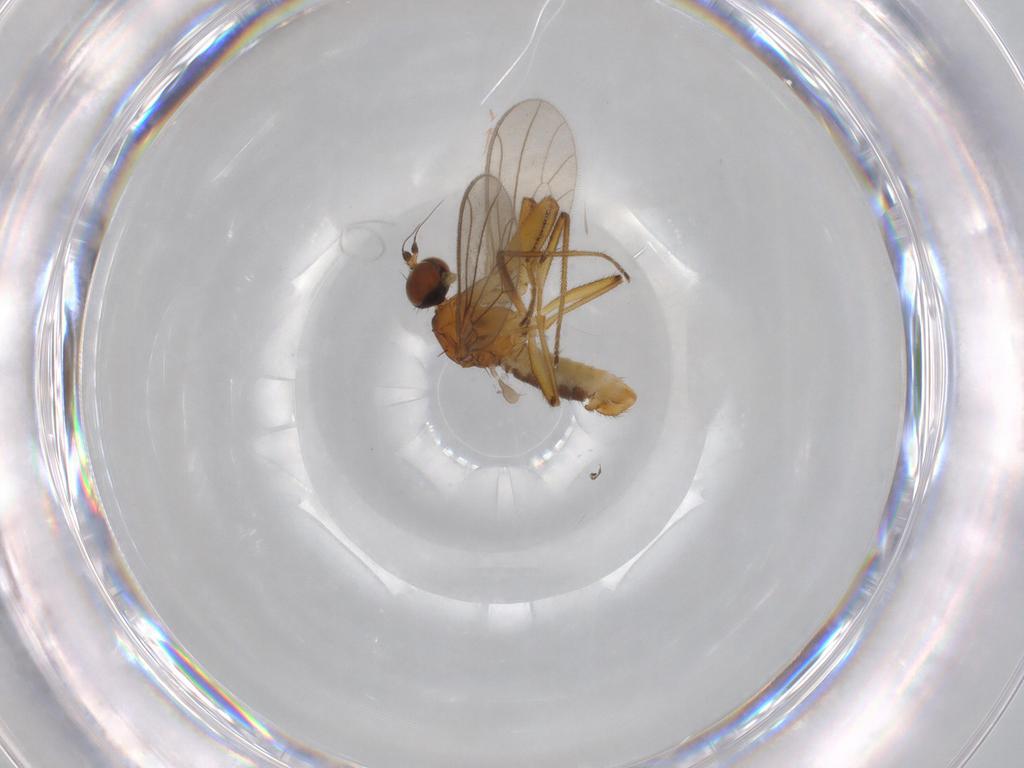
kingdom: Animalia
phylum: Arthropoda
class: Insecta
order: Diptera
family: Empididae
